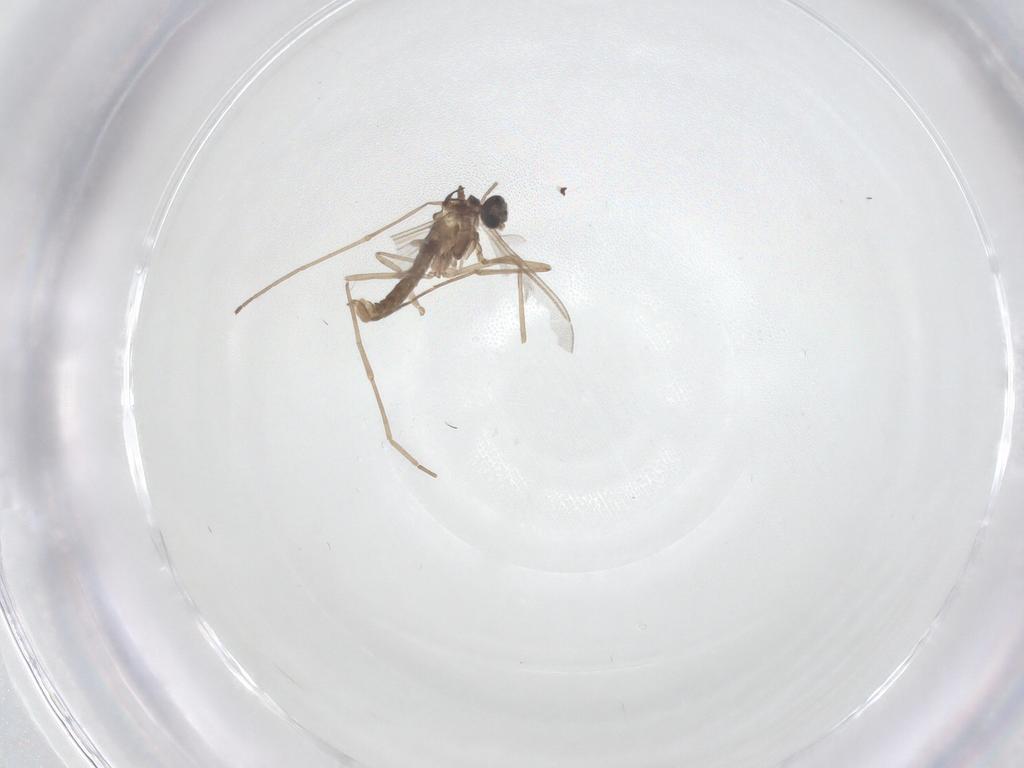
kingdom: Animalia
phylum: Arthropoda
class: Insecta
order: Diptera
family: Cecidomyiidae
